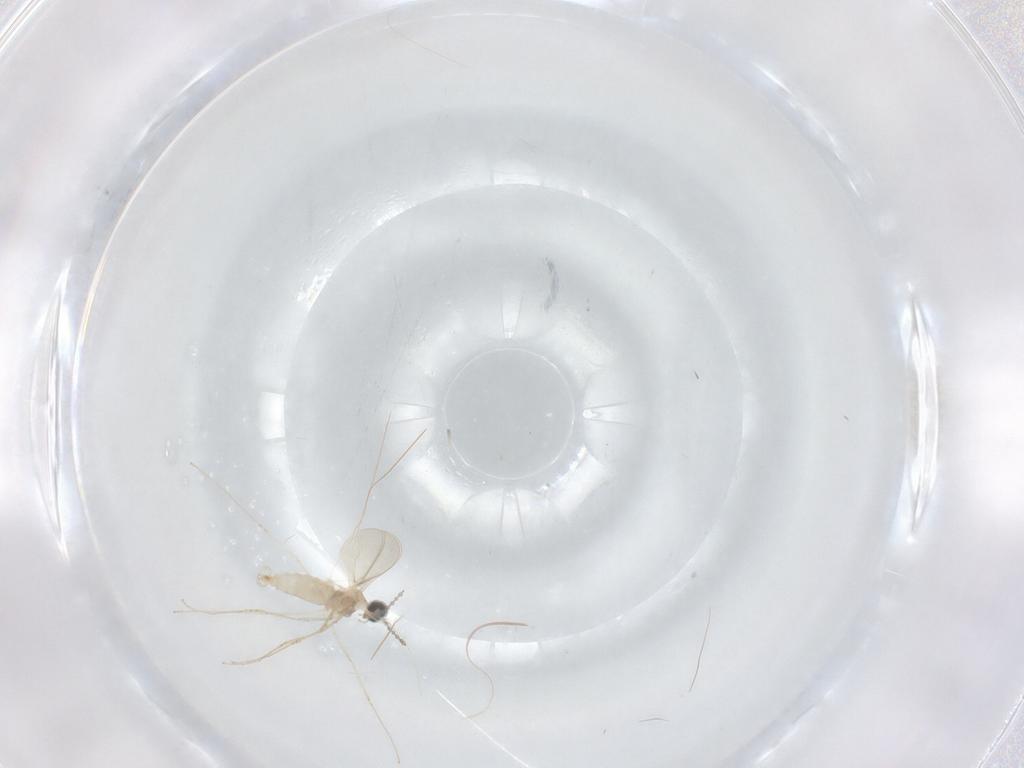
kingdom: Animalia
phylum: Arthropoda
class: Insecta
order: Diptera
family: Cecidomyiidae
